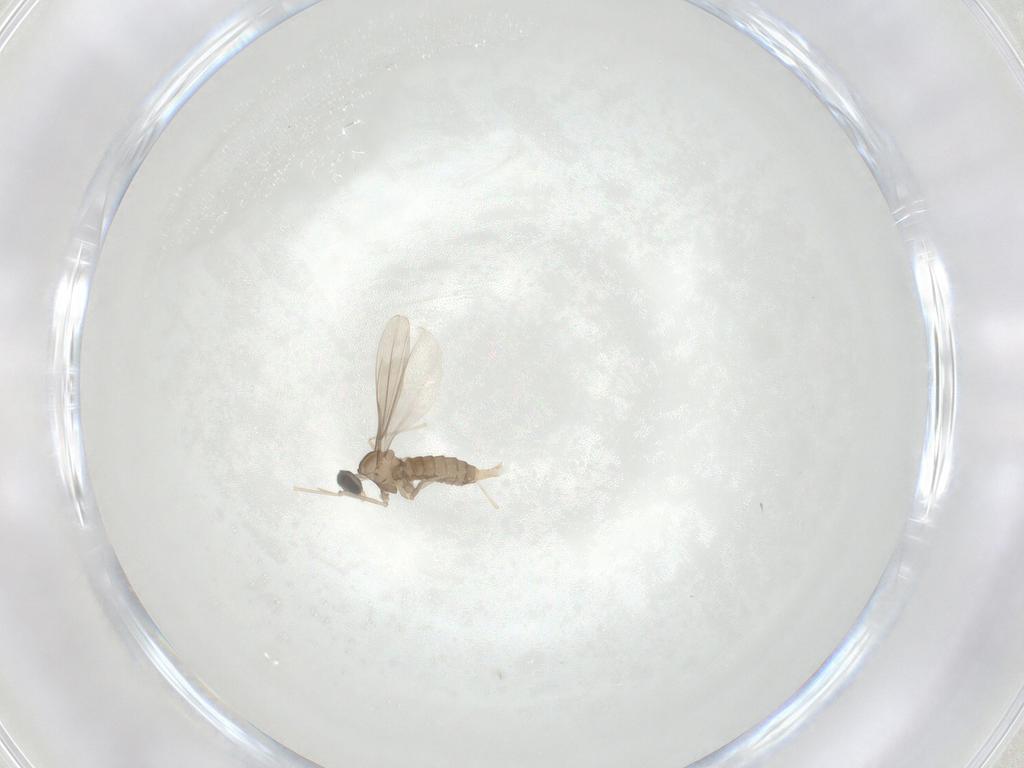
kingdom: Animalia
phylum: Arthropoda
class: Insecta
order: Diptera
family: Cecidomyiidae
